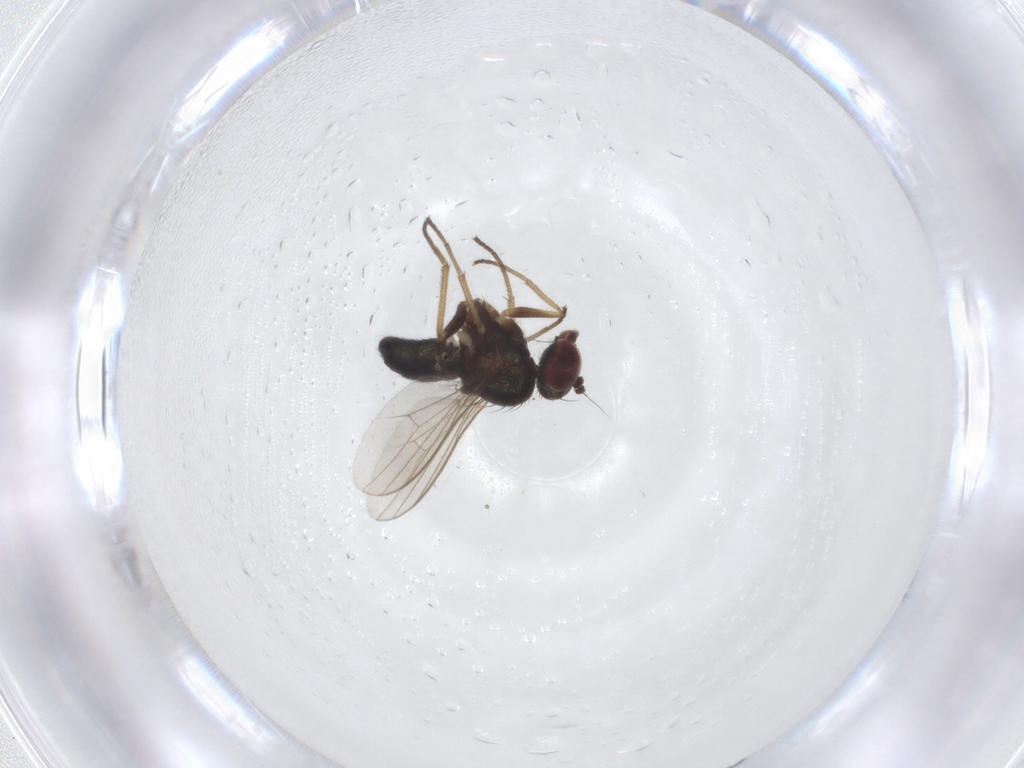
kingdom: Animalia
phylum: Arthropoda
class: Insecta
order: Diptera
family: Dolichopodidae
